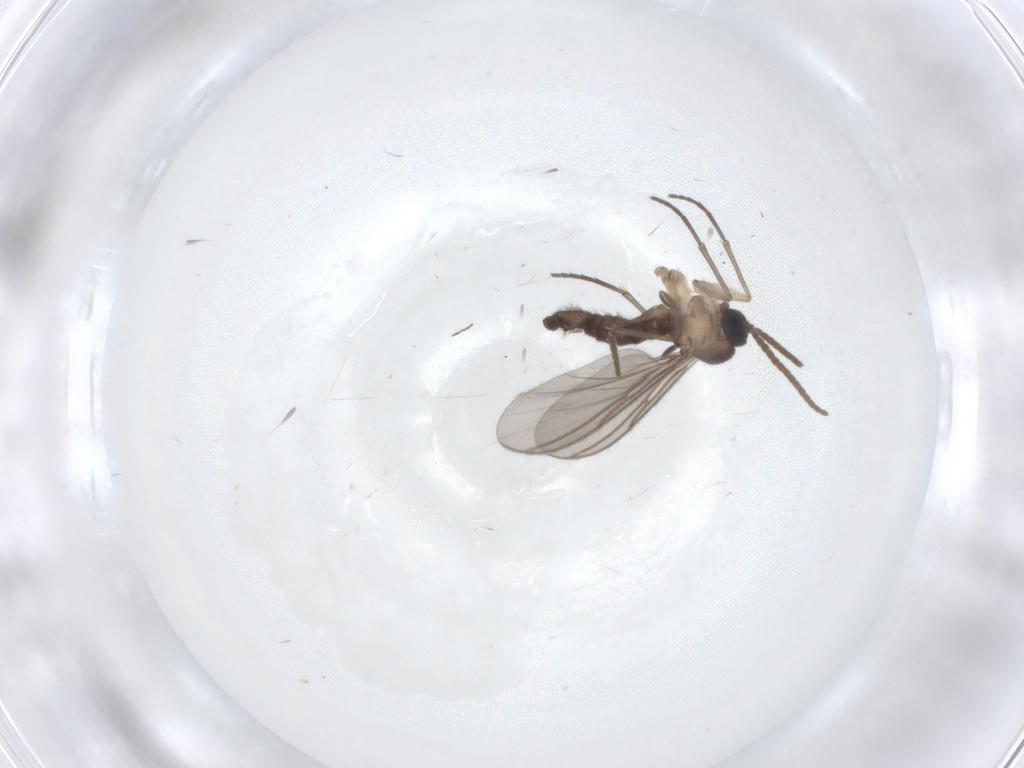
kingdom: Animalia
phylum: Arthropoda
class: Insecta
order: Diptera
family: Chironomidae
